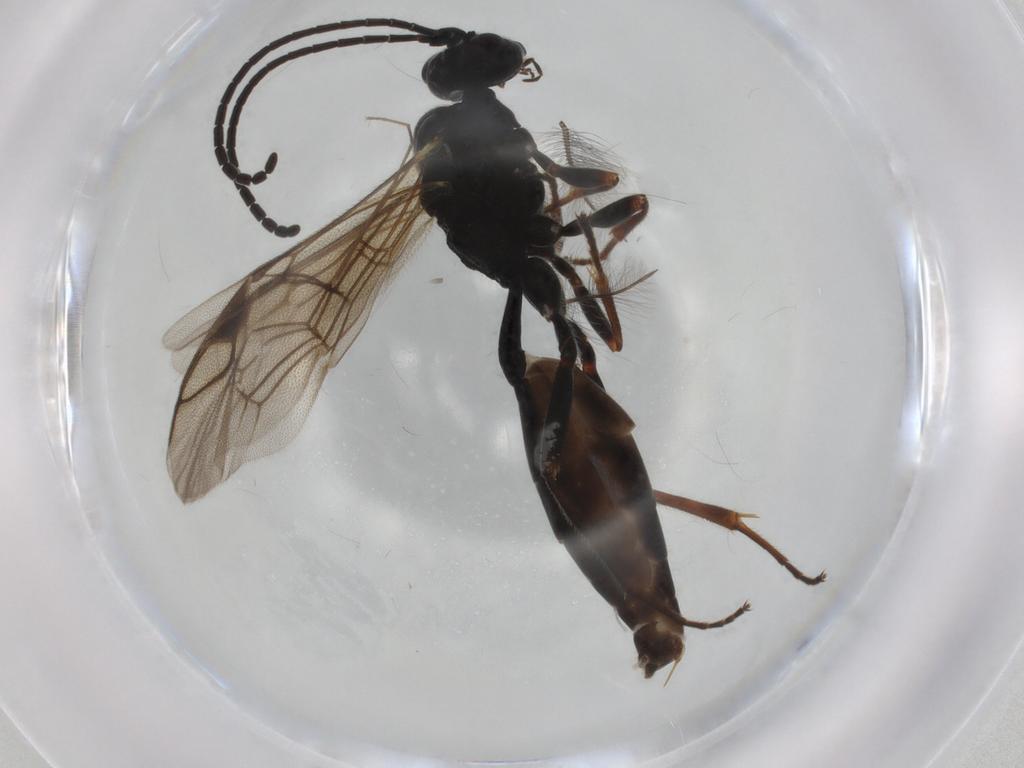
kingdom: Animalia
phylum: Arthropoda
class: Insecta
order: Hymenoptera
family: Ichneumonidae
